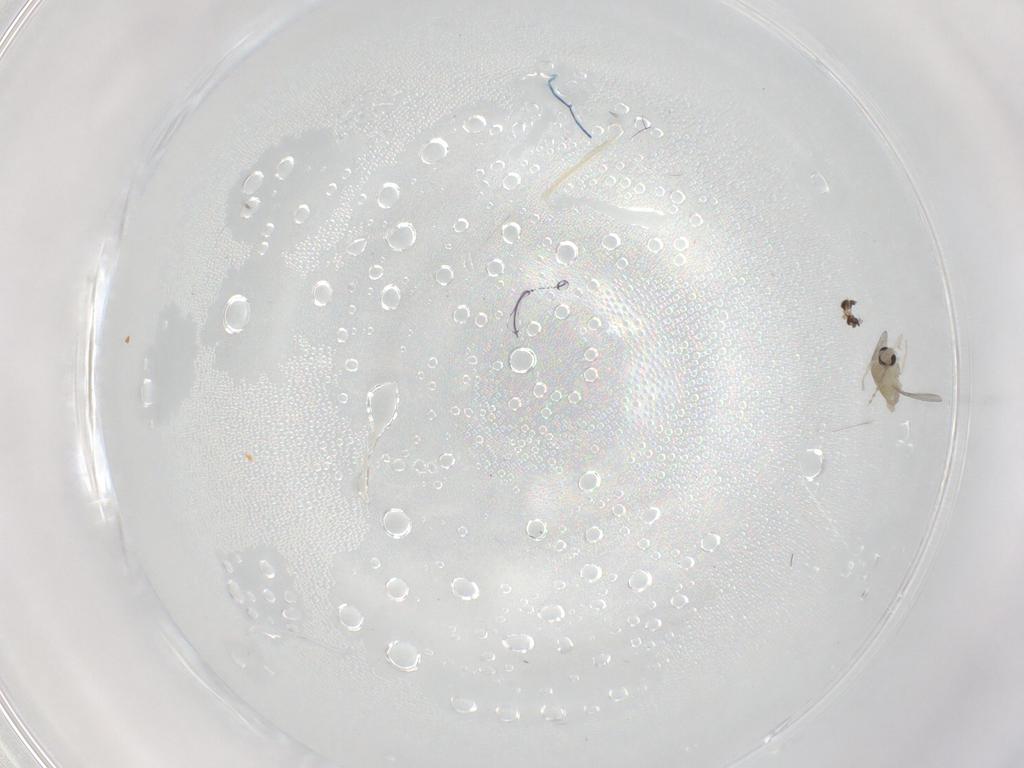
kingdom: Animalia
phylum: Arthropoda
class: Insecta
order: Diptera
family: Cecidomyiidae
